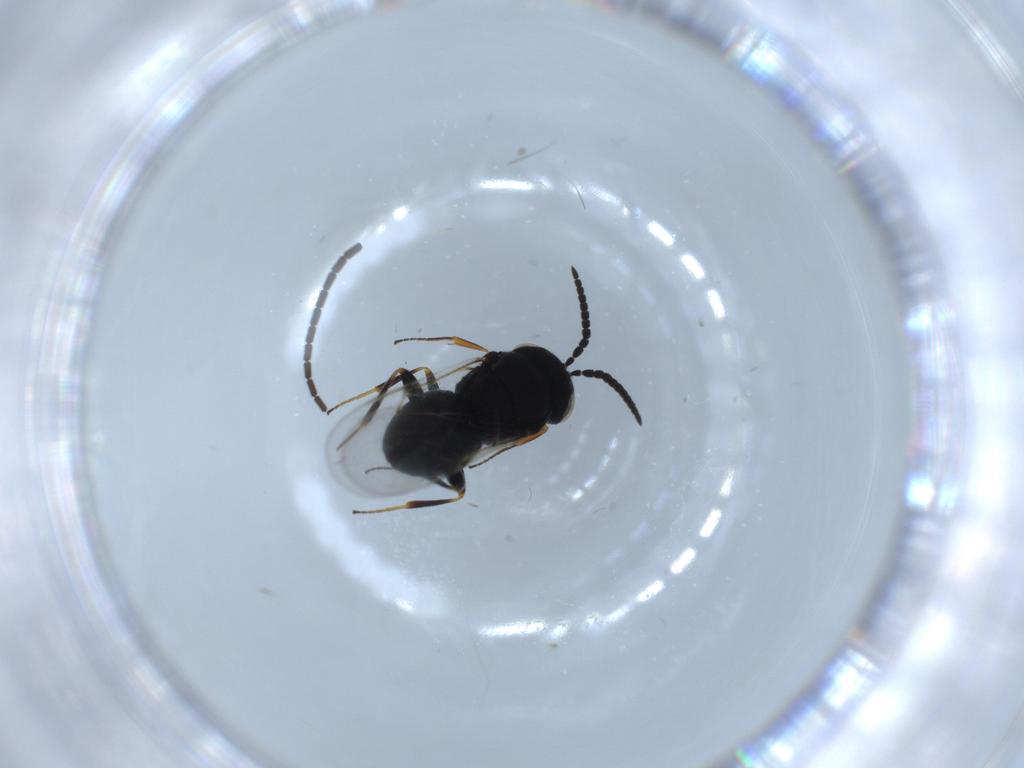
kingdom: Animalia
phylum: Arthropoda
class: Insecta
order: Hymenoptera
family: Scelionidae
